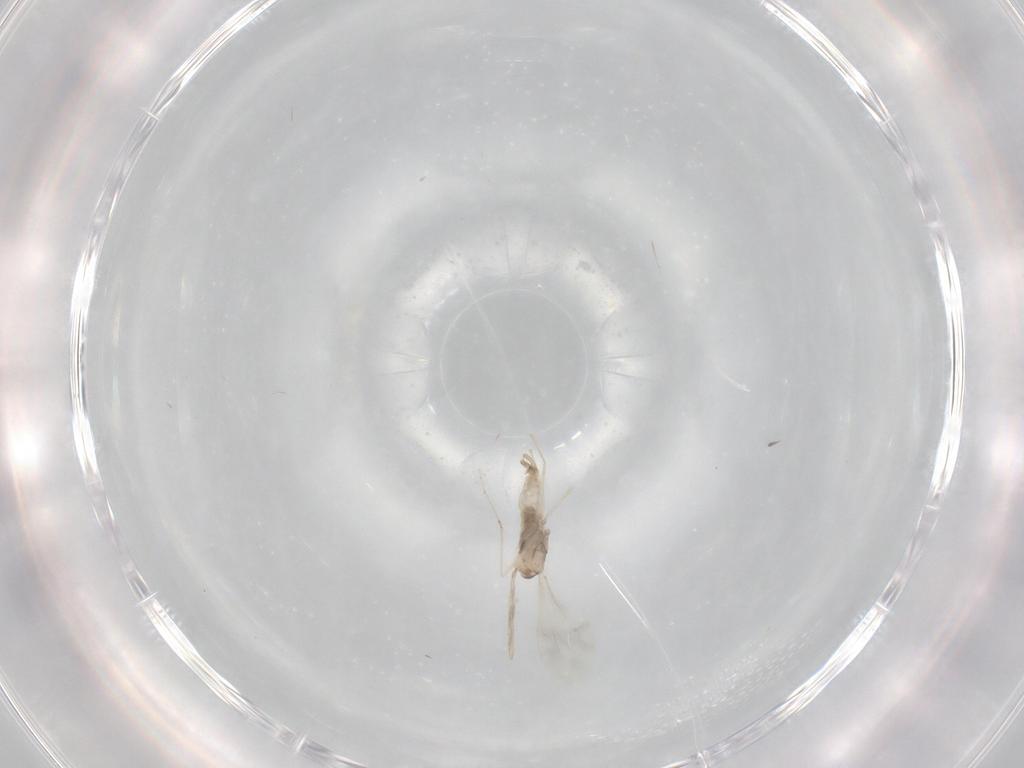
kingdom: Animalia
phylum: Arthropoda
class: Insecta
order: Diptera
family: Cecidomyiidae
